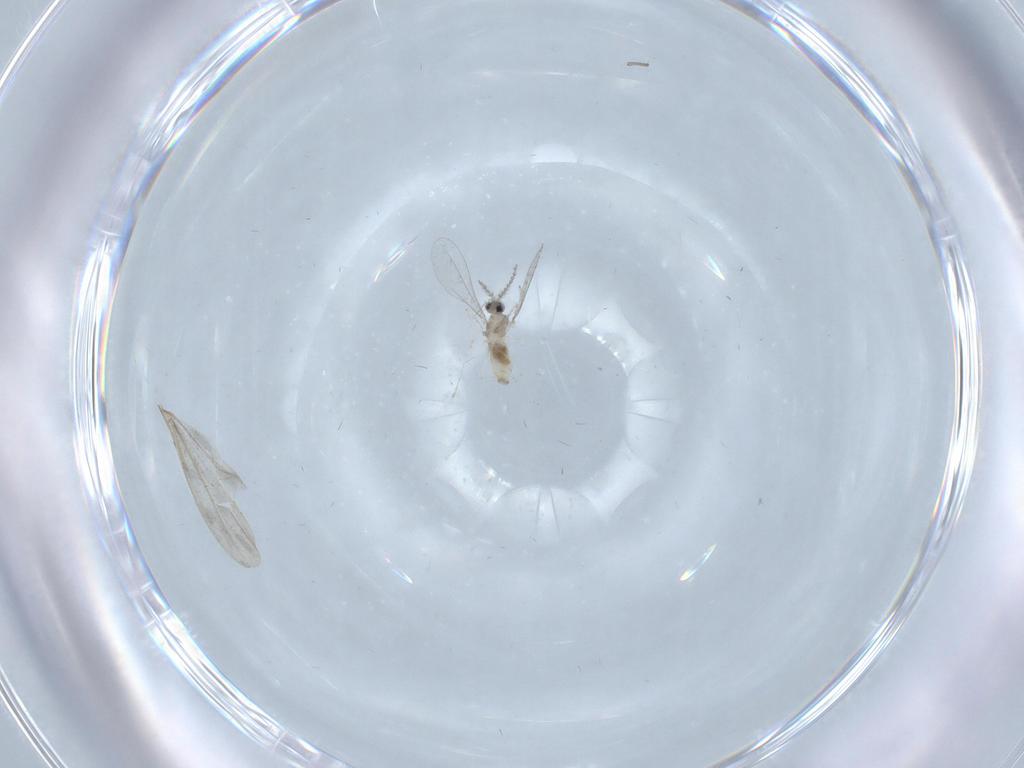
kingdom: Animalia
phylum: Arthropoda
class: Insecta
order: Diptera
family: Cecidomyiidae
